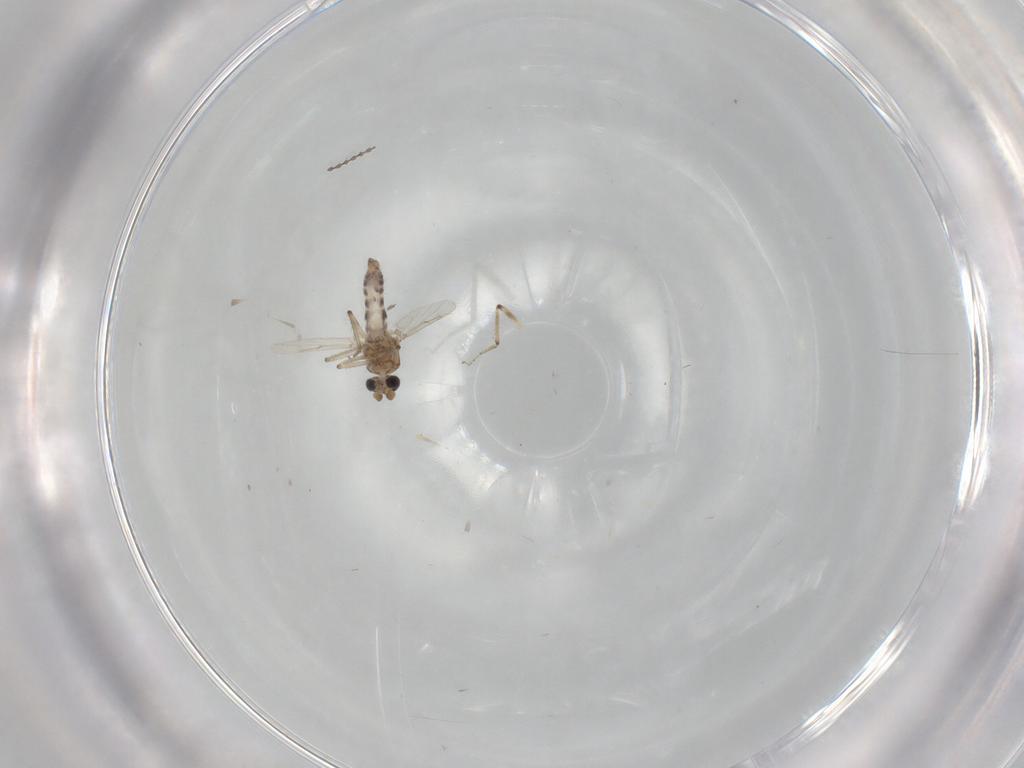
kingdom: Animalia
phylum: Arthropoda
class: Insecta
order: Diptera
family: Ceratopogonidae
